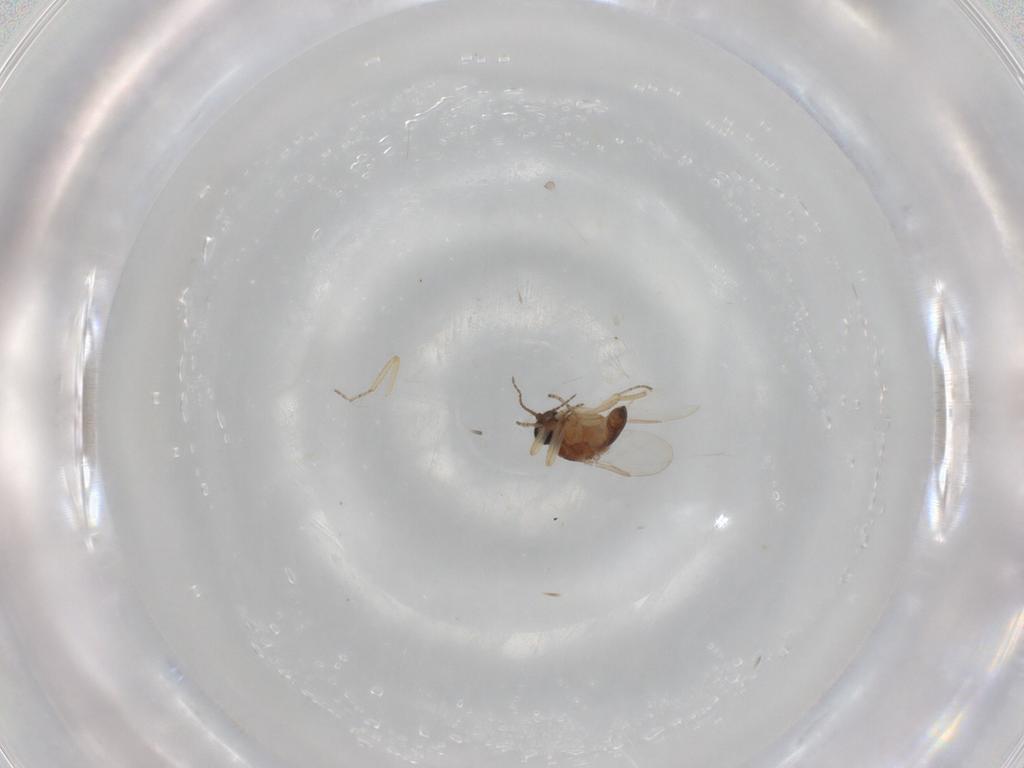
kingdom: Animalia
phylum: Arthropoda
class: Insecta
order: Diptera
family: Ceratopogonidae
